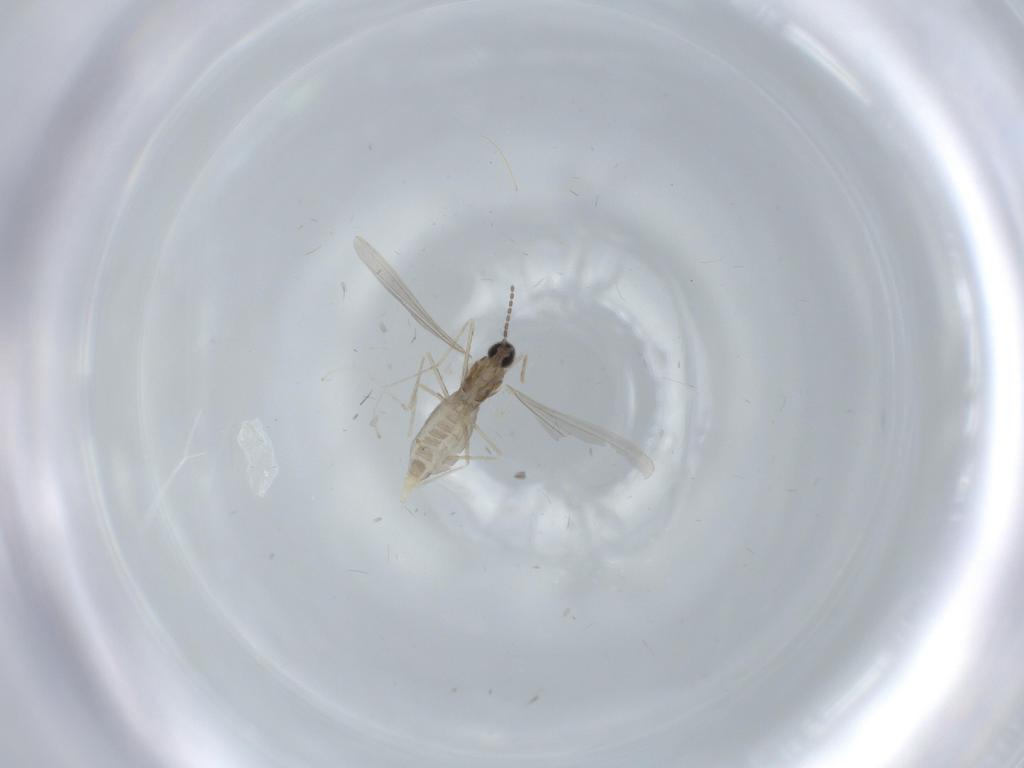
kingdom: Animalia
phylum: Arthropoda
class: Insecta
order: Diptera
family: Cecidomyiidae
